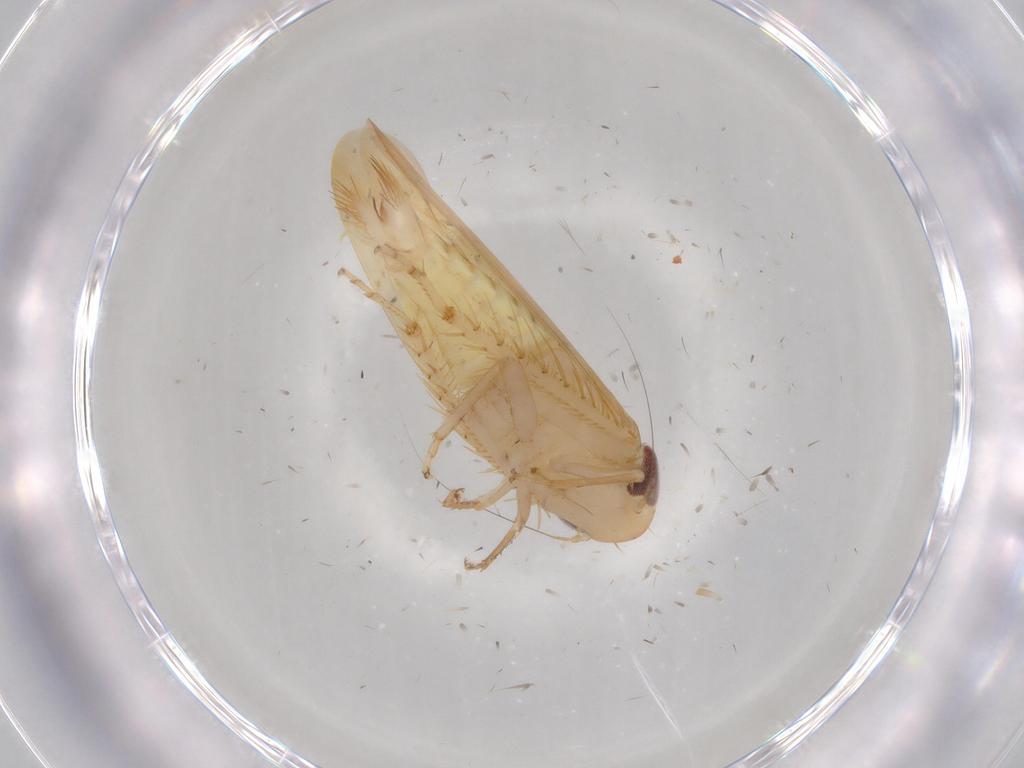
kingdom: Animalia
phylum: Arthropoda
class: Insecta
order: Hemiptera
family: Cicadellidae
